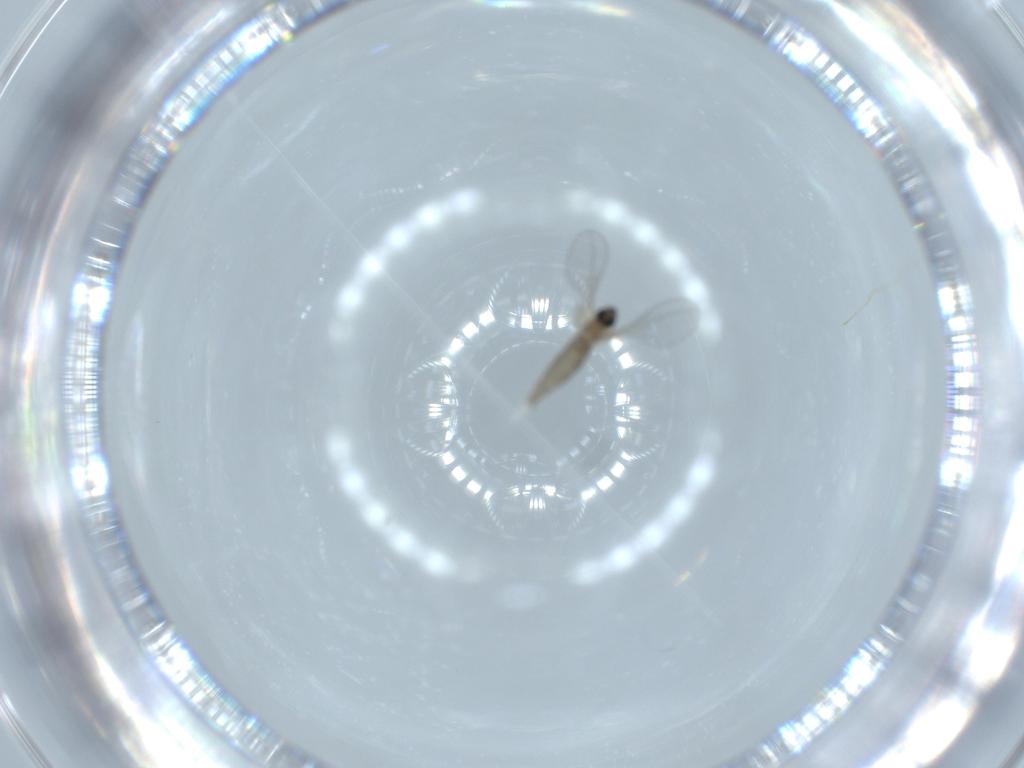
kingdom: Animalia
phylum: Arthropoda
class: Insecta
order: Diptera
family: Cecidomyiidae
